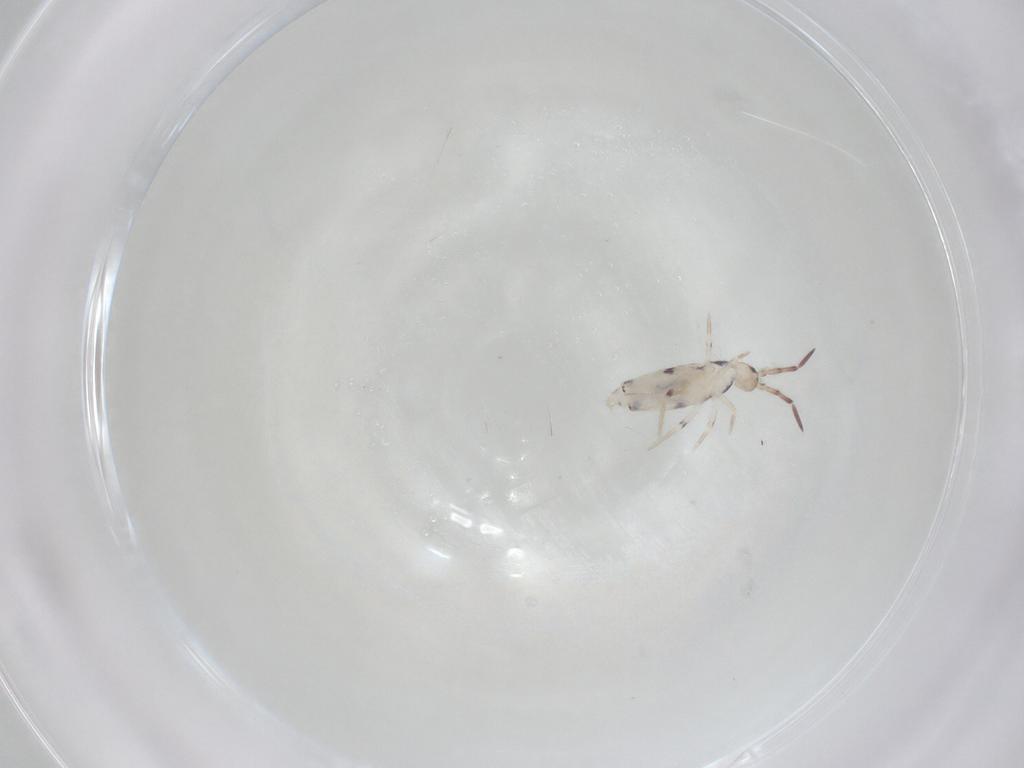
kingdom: Animalia
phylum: Arthropoda
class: Collembola
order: Entomobryomorpha
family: Entomobryidae
